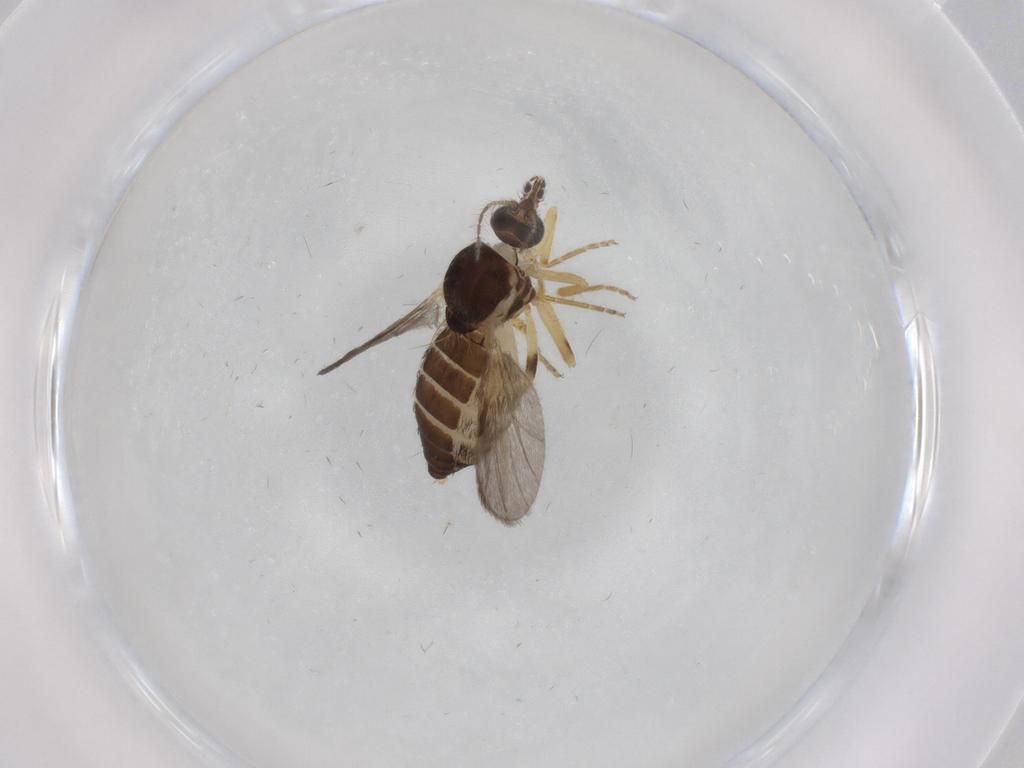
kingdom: Animalia
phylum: Arthropoda
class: Insecta
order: Diptera
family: Ceratopogonidae
